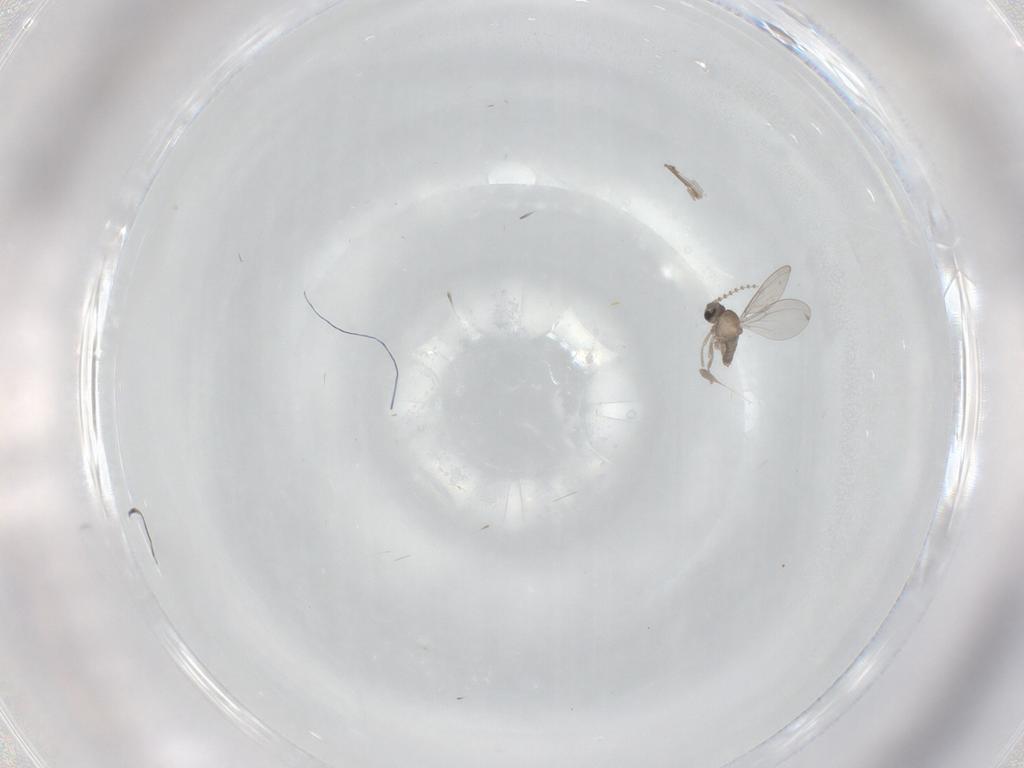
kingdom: Animalia
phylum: Arthropoda
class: Insecta
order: Diptera
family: Cecidomyiidae
